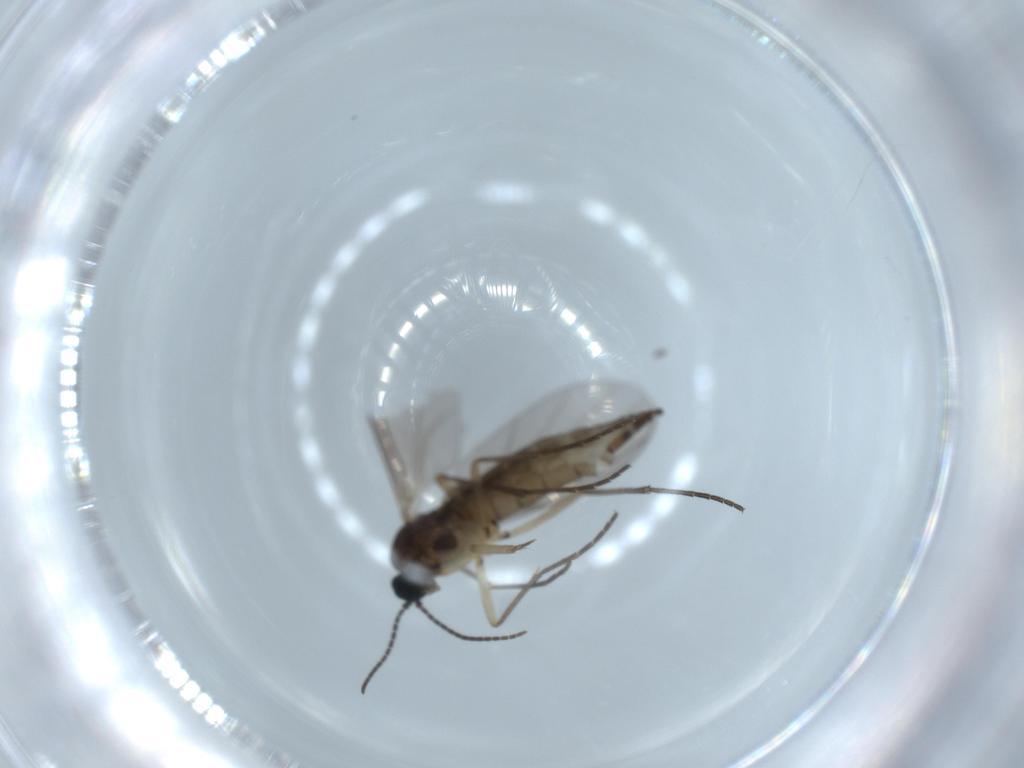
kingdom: Animalia
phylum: Arthropoda
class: Insecta
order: Diptera
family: Sciaridae
